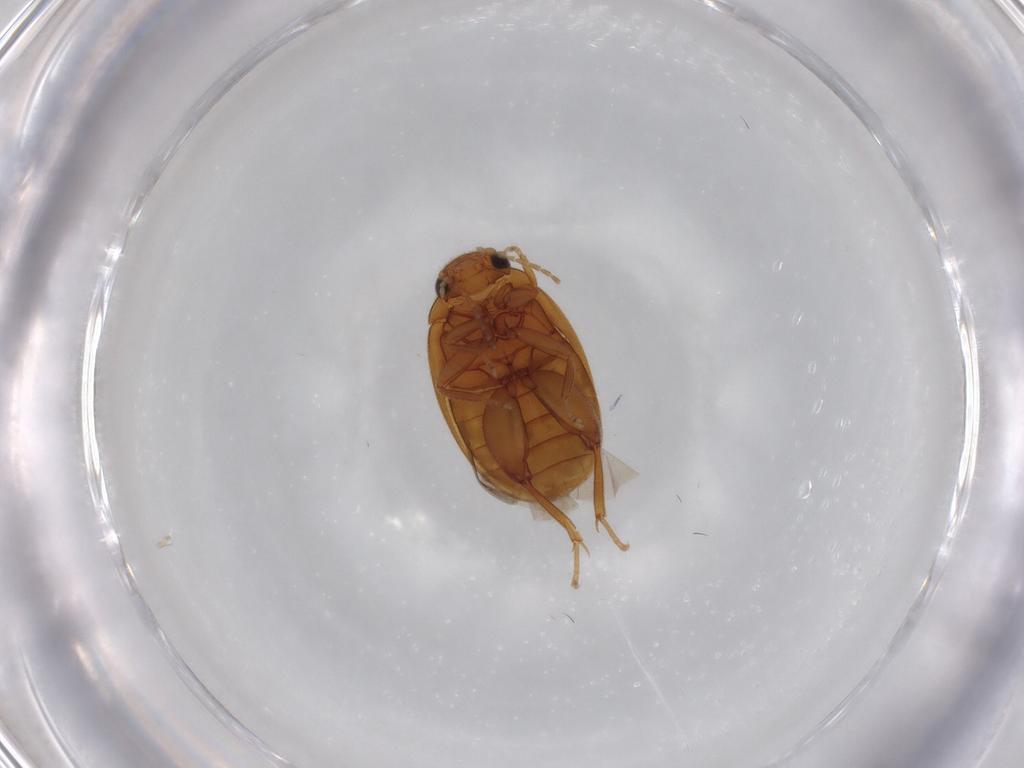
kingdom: Animalia
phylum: Arthropoda
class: Insecta
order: Coleoptera
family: Scirtidae
